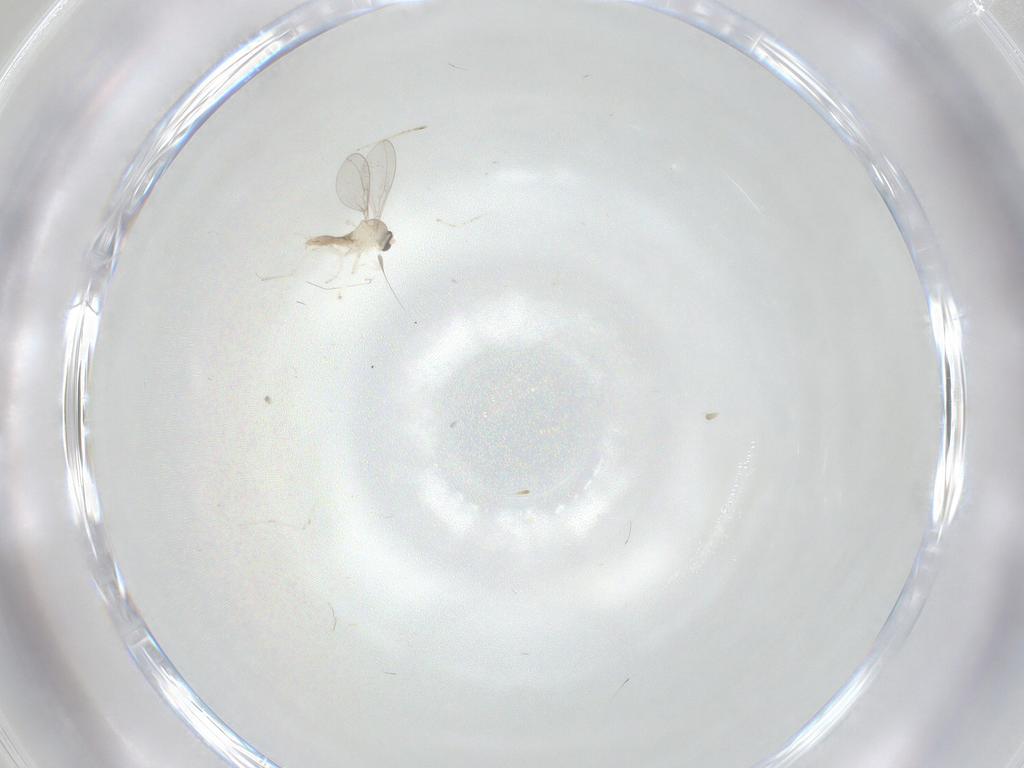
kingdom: Animalia
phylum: Arthropoda
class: Insecta
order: Diptera
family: Cecidomyiidae
